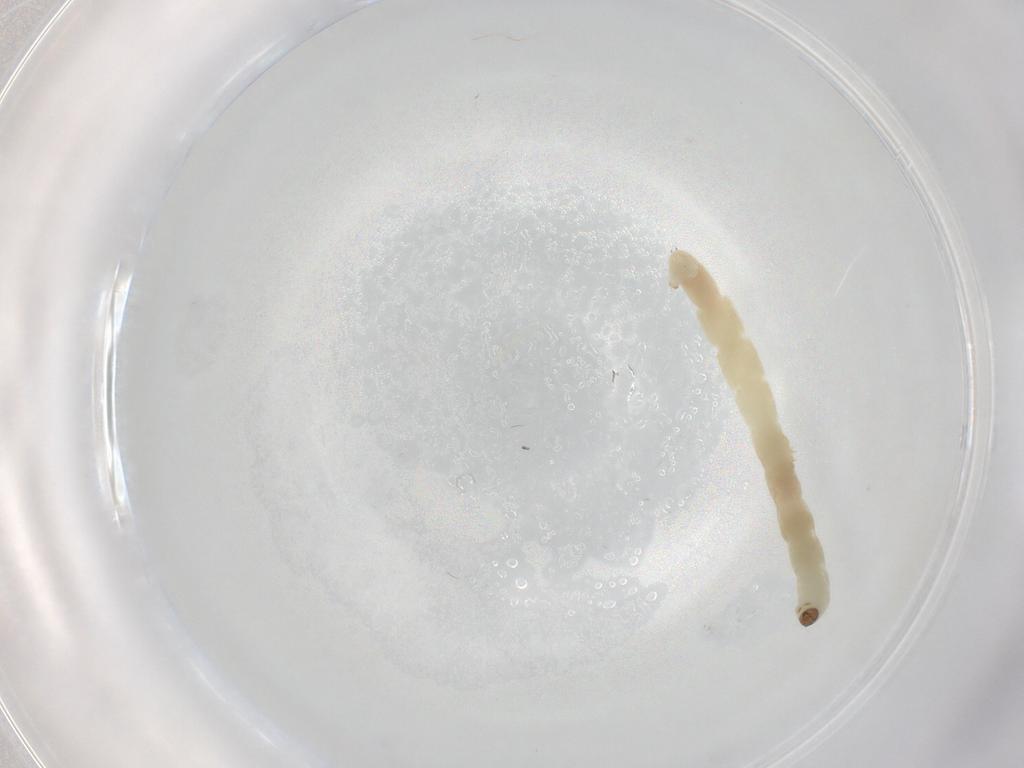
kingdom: Animalia
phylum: Arthropoda
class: Insecta
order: Diptera
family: Chironomidae
